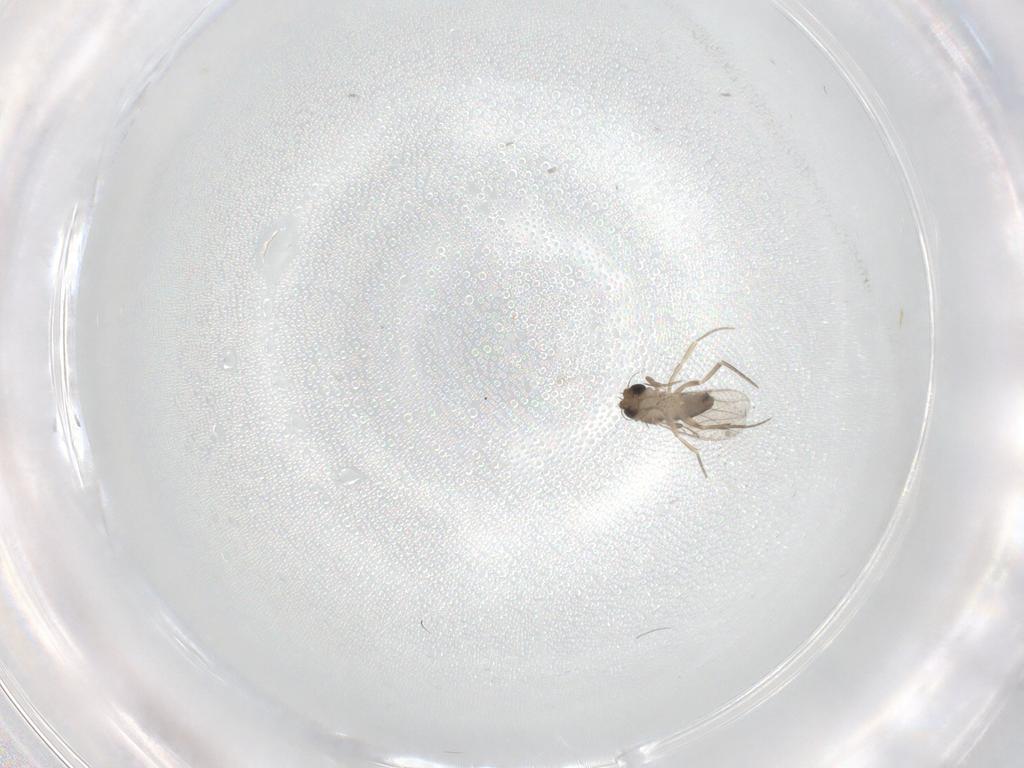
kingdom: Animalia
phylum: Arthropoda
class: Insecta
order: Diptera
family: Phoridae
